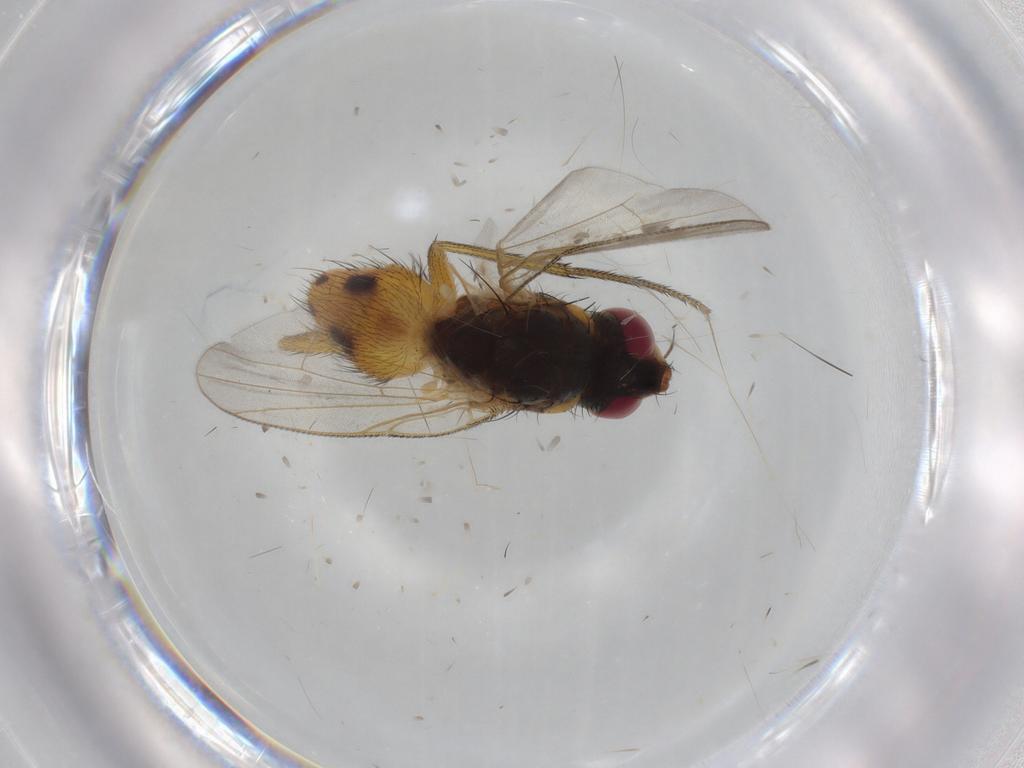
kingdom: Animalia
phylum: Arthropoda
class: Insecta
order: Diptera
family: Muscidae
